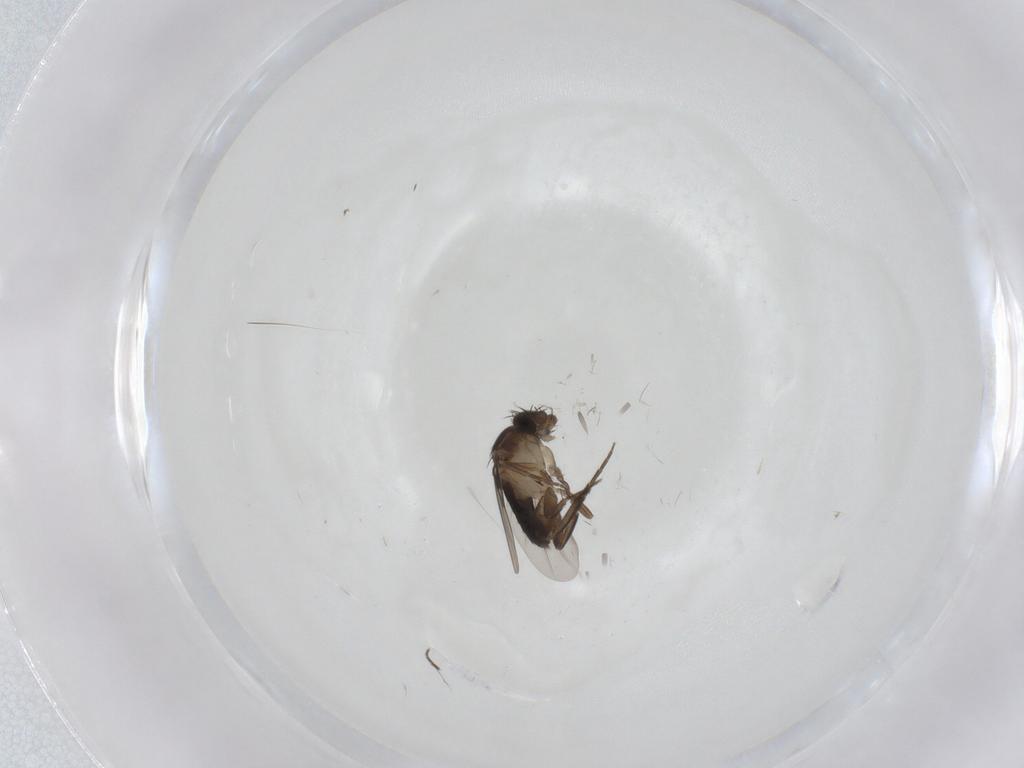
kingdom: Animalia
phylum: Arthropoda
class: Insecta
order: Diptera
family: Phoridae
